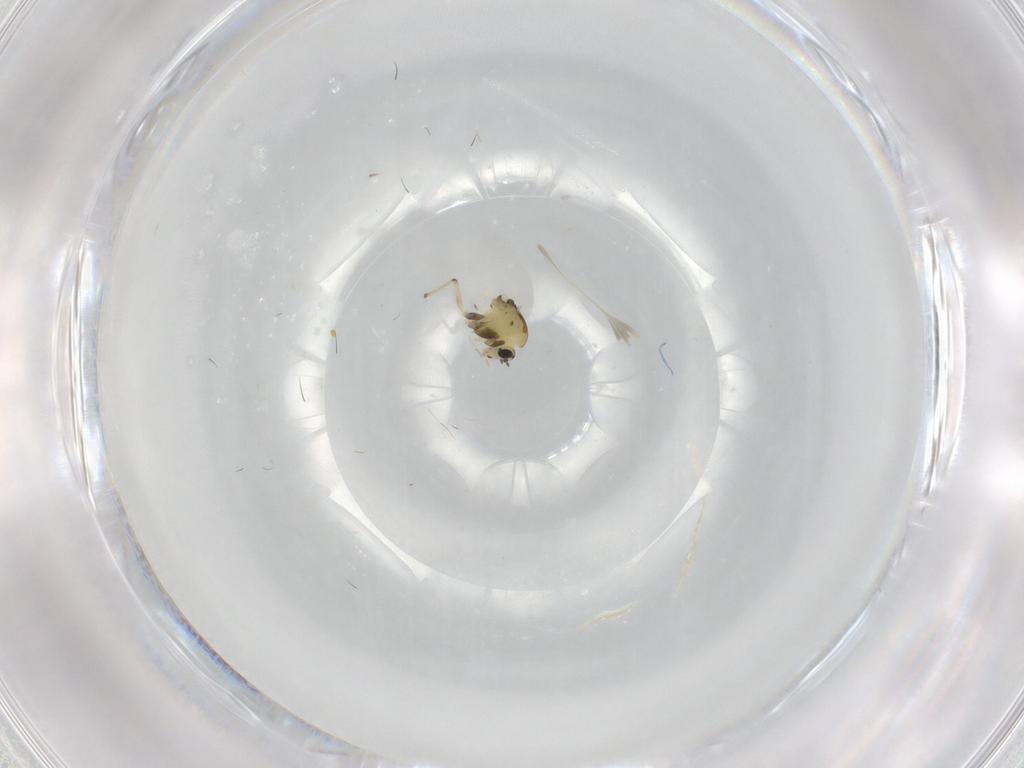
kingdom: Animalia
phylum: Arthropoda
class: Insecta
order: Diptera
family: Chironomidae
